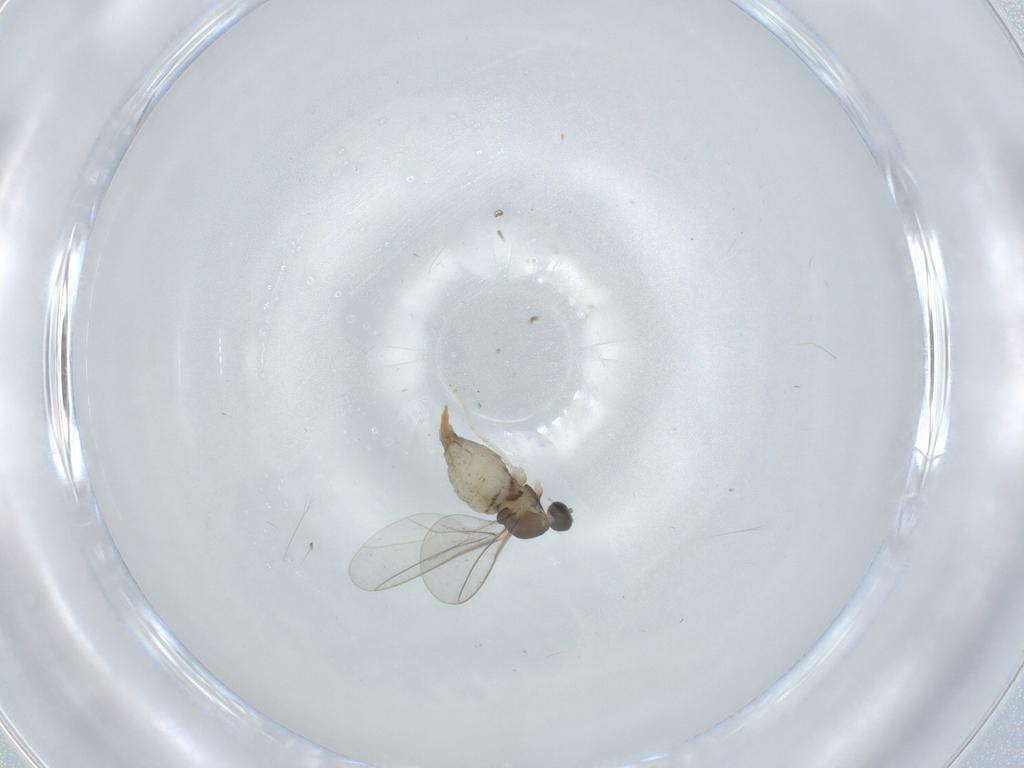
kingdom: Animalia
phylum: Arthropoda
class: Insecta
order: Diptera
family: Cecidomyiidae
